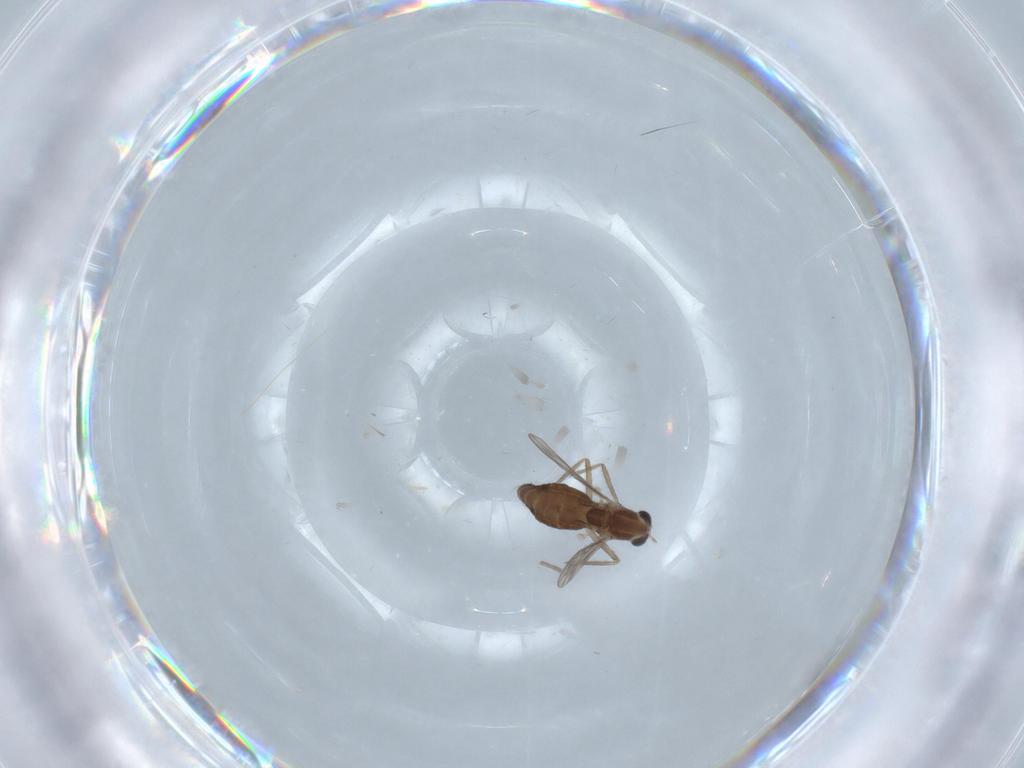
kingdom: Animalia
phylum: Arthropoda
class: Insecta
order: Diptera
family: Chironomidae
